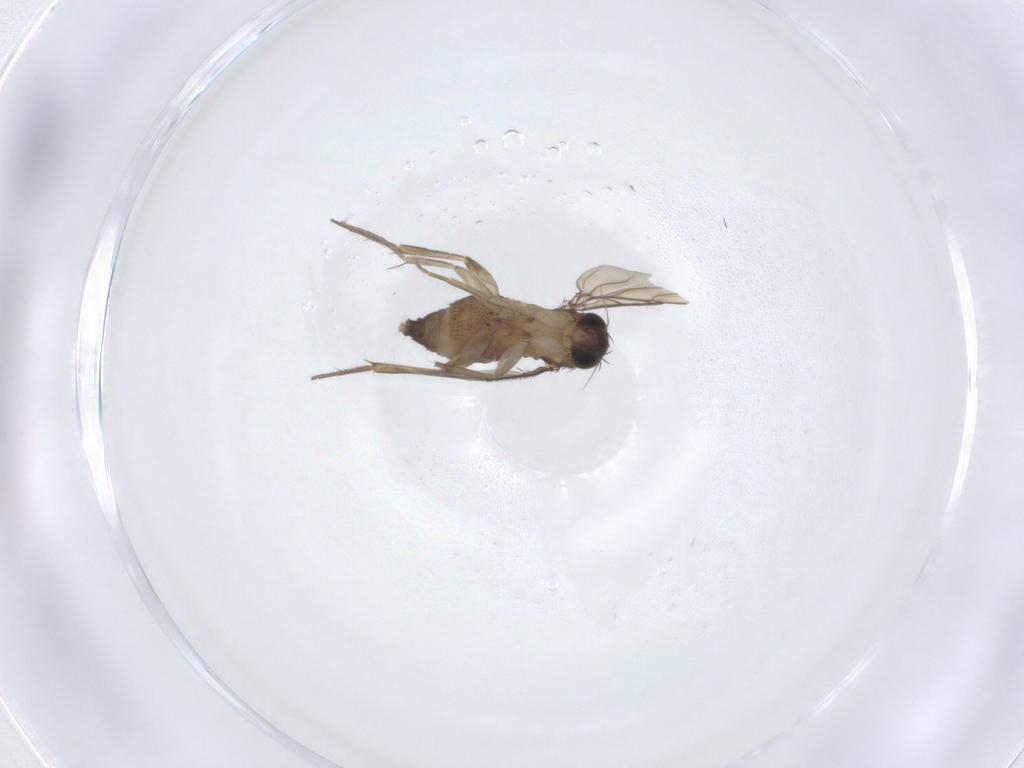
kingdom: Animalia
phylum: Arthropoda
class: Insecta
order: Diptera
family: Phoridae
